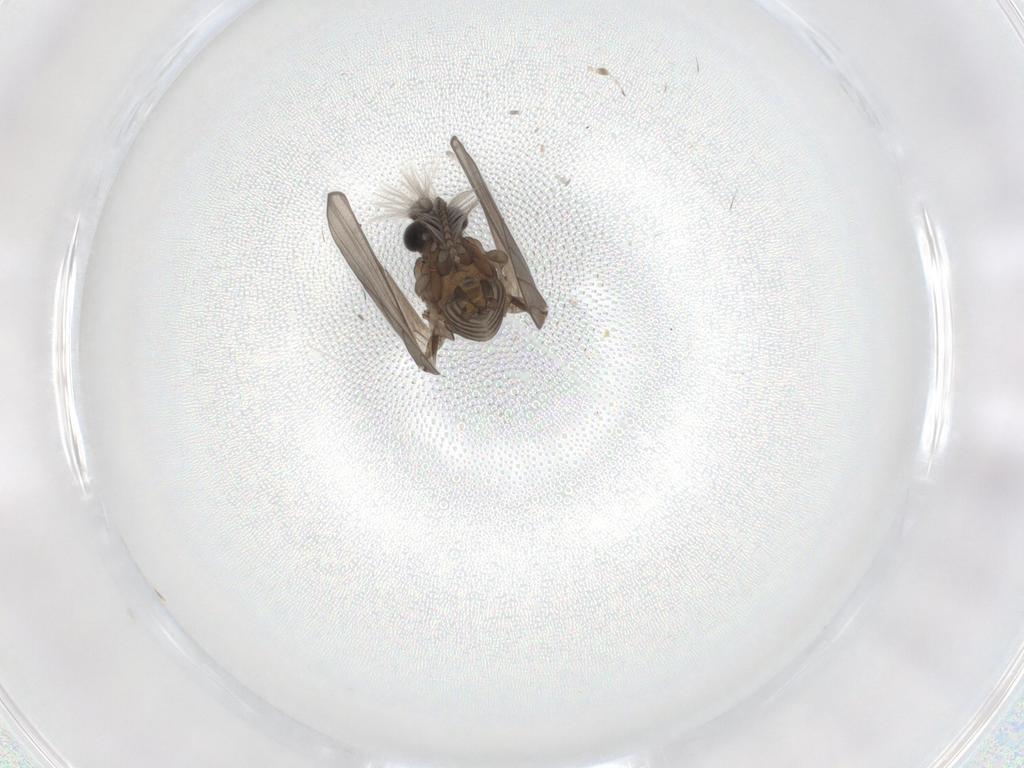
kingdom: Animalia
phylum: Arthropoda
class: Insecta
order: Diptera
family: Psychodidae
